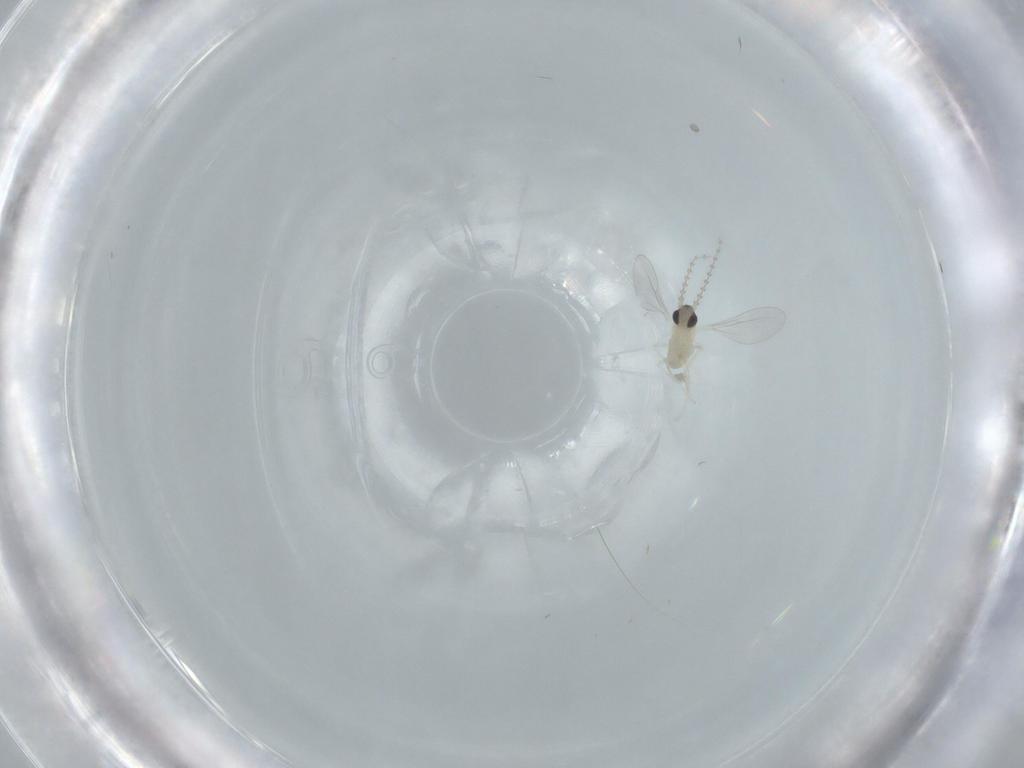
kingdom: Animalia
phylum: Arthropoda
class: Insecta
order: Diptera
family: Cecidomyiidae
